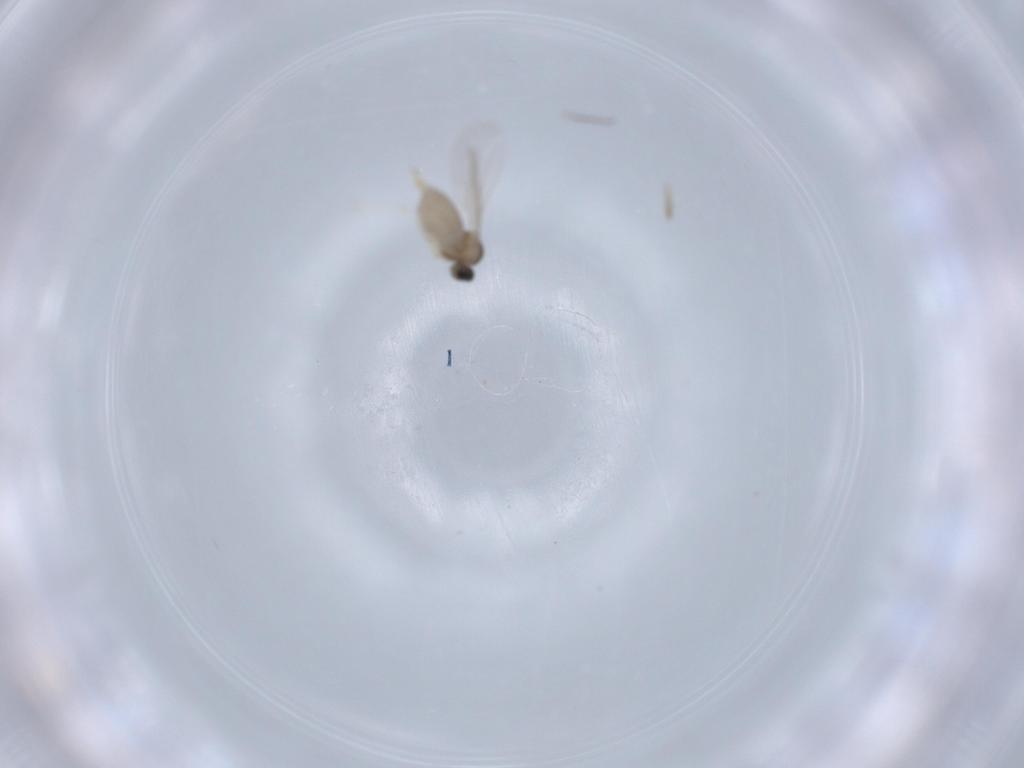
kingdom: Animalia
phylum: Arthropoda
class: Insecta
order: Diptera
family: Cecidomyiidae
